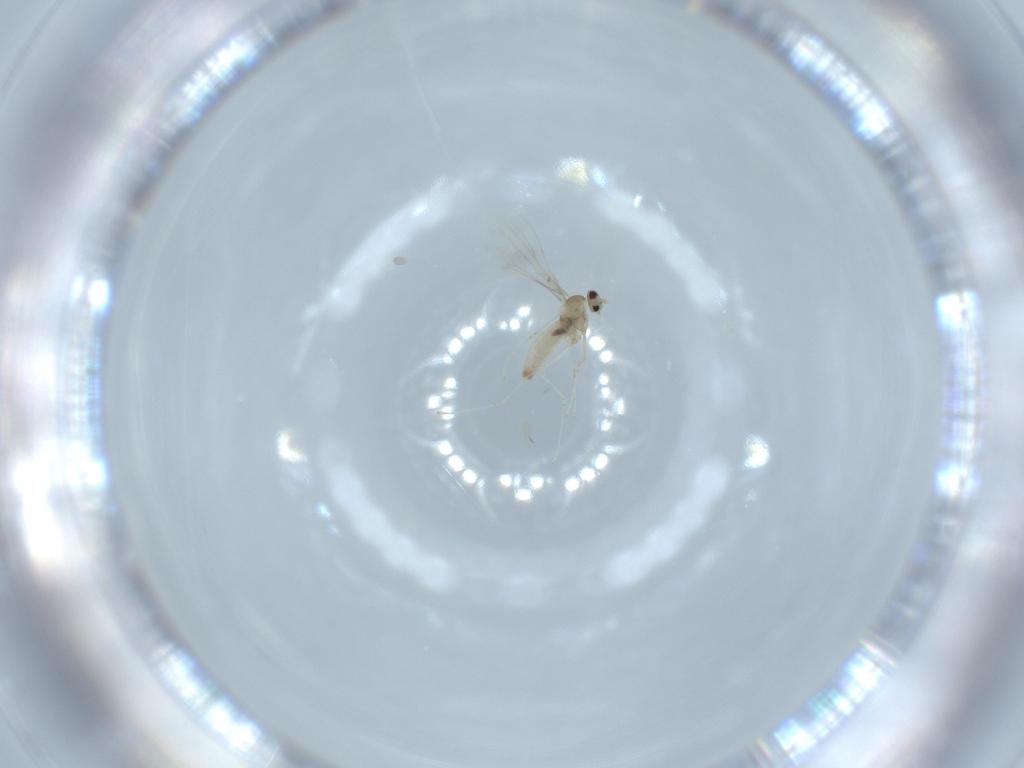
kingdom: Animalia
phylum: Arthropoda
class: Insecta
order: Diptera
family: Cecidomyiidae
